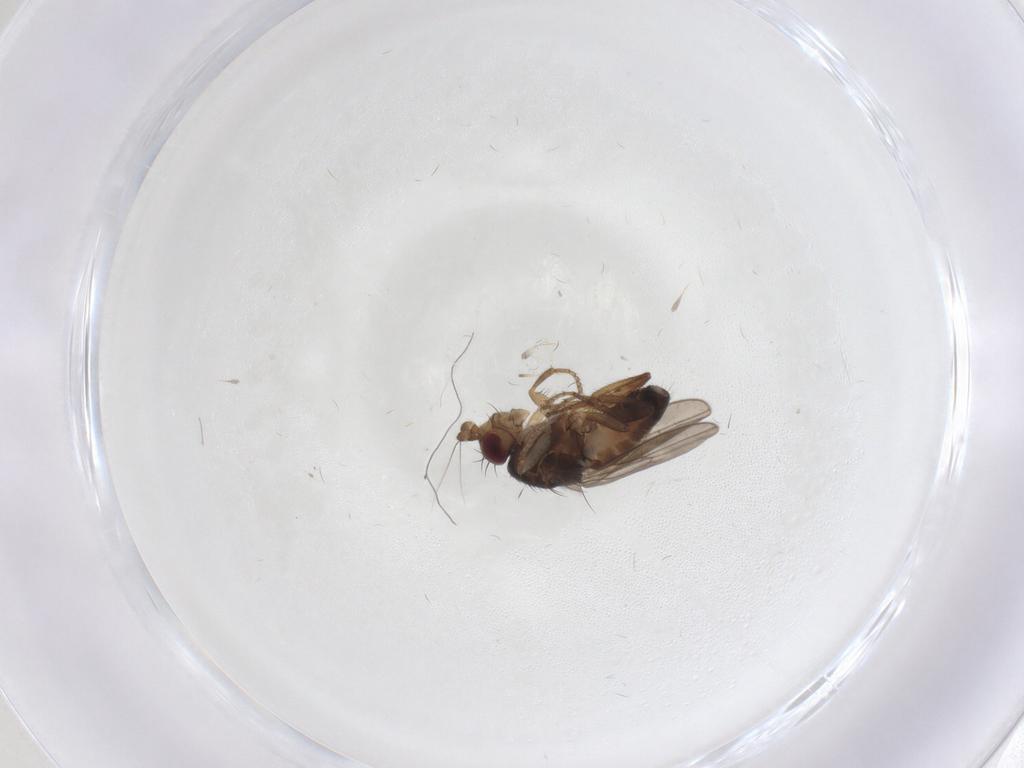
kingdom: Animalia
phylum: Arthropoda
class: Insecta
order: Diptera
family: Sphaeroceridae
